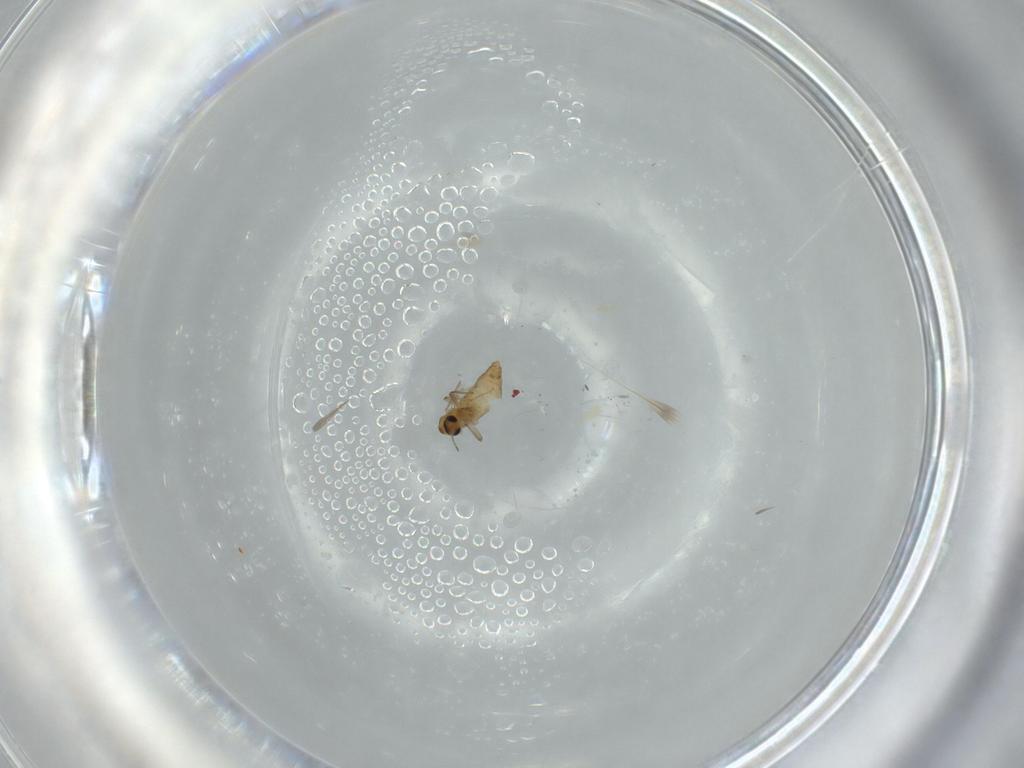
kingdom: Animalia
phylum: Arthropoda
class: Insecta
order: Diptera
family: Chironomidae
